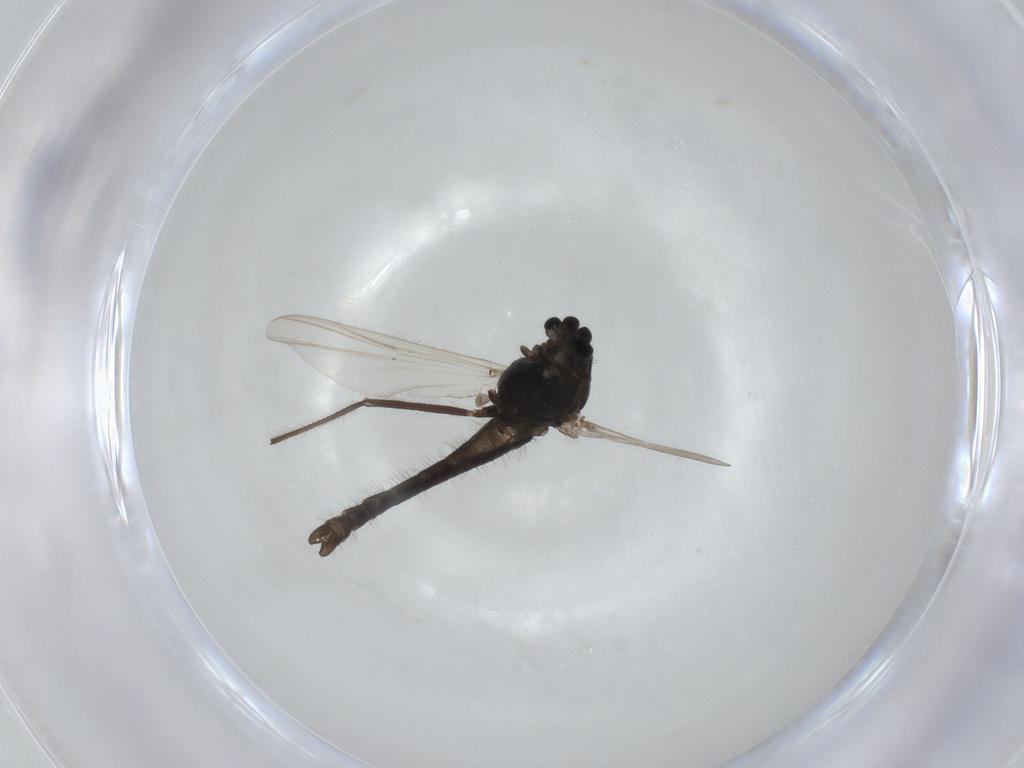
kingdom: Animalia
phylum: Arthropoda
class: Insecta
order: Diptera
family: Chironomidae
